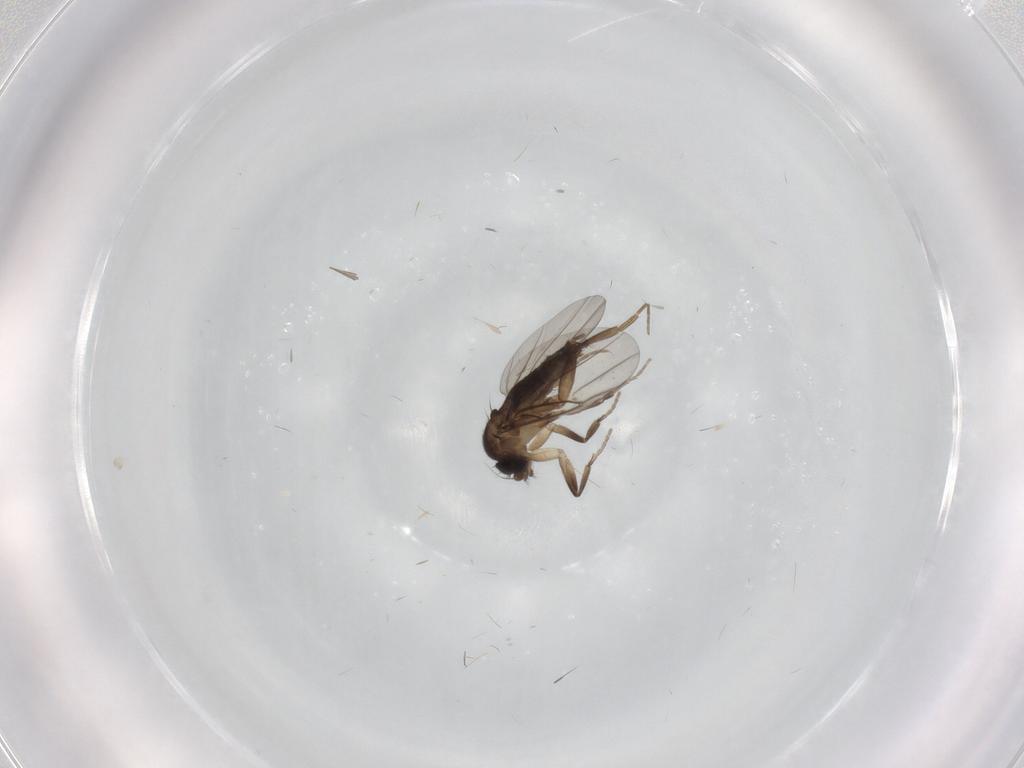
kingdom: Animalia
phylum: Arthropoda
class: Insecta
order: Diptera
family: Phoridae
